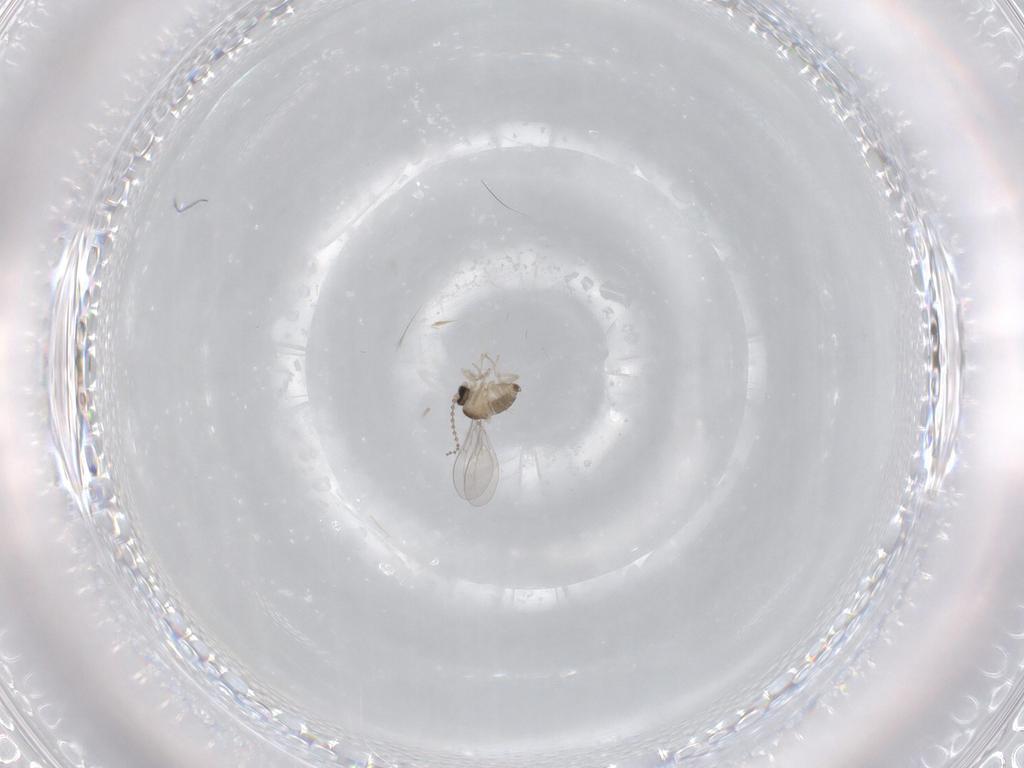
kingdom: Animalia
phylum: Arthropoda
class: Insecta
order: Diptera
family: Cecidomyiidae
